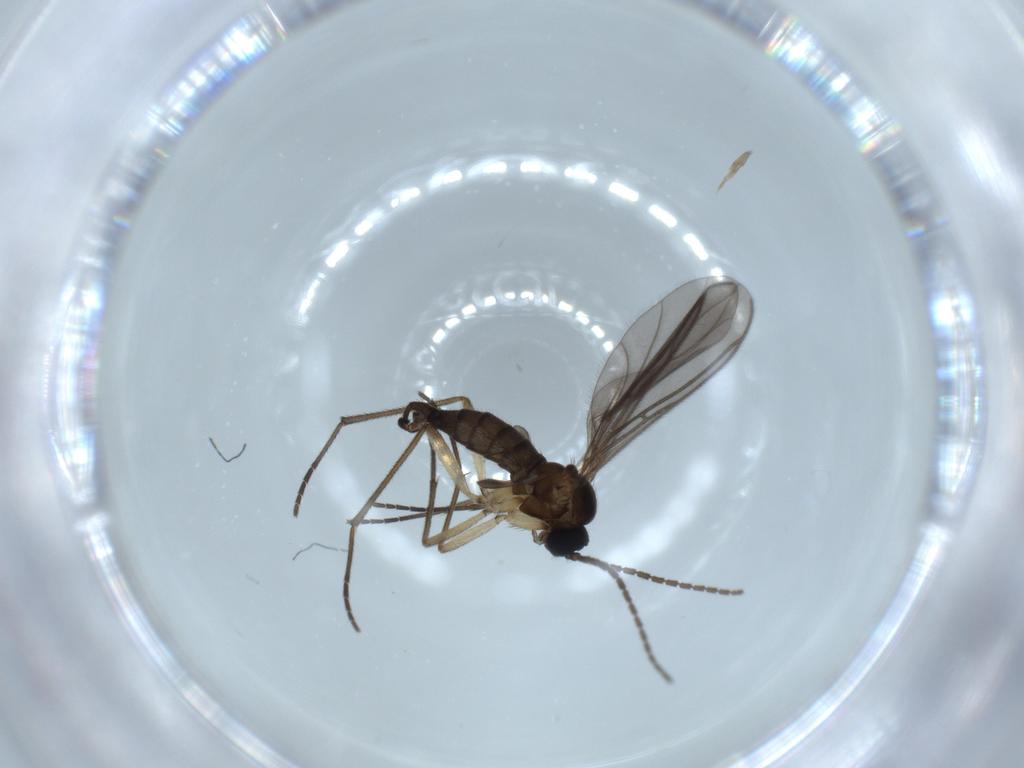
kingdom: Animalia
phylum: Arthropoda
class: Insecta
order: Diptera
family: Sciaridae
